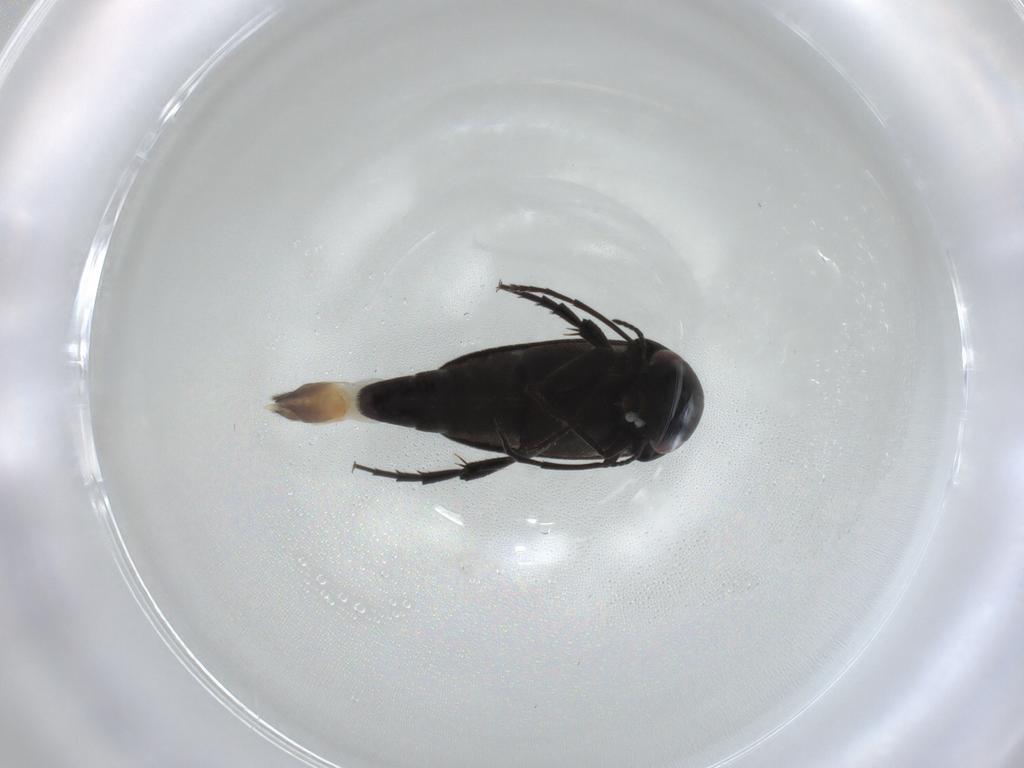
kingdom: Animalia
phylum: Arthropoda
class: Insecta
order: Coleoptera
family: Mordellidae
